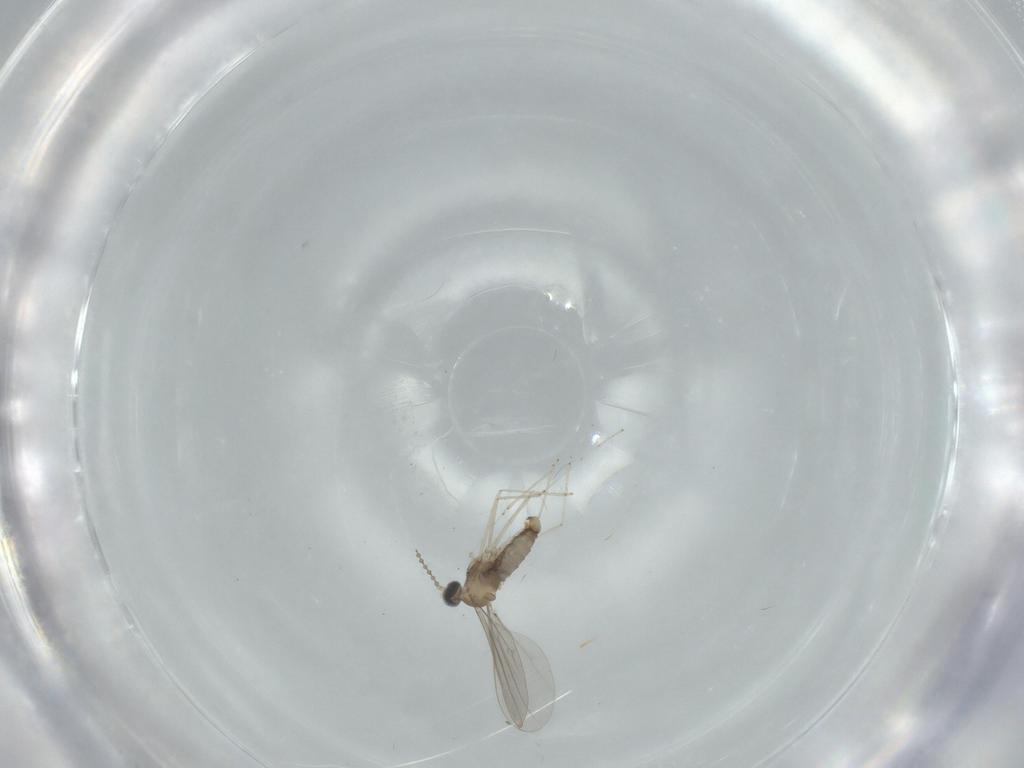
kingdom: Animalia
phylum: Arthropoda
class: Insecta
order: Diptera
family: Cecidomyiidae
